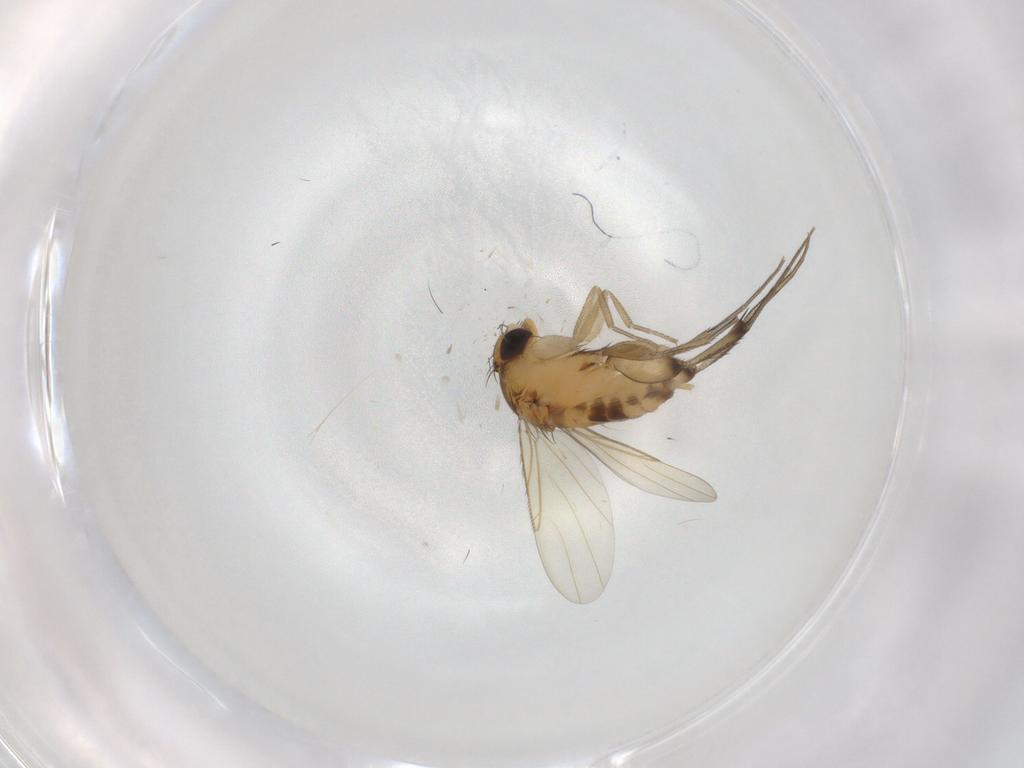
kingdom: Animalia
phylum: Arthropoda
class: Insecta
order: Diptera
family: Phoridae
